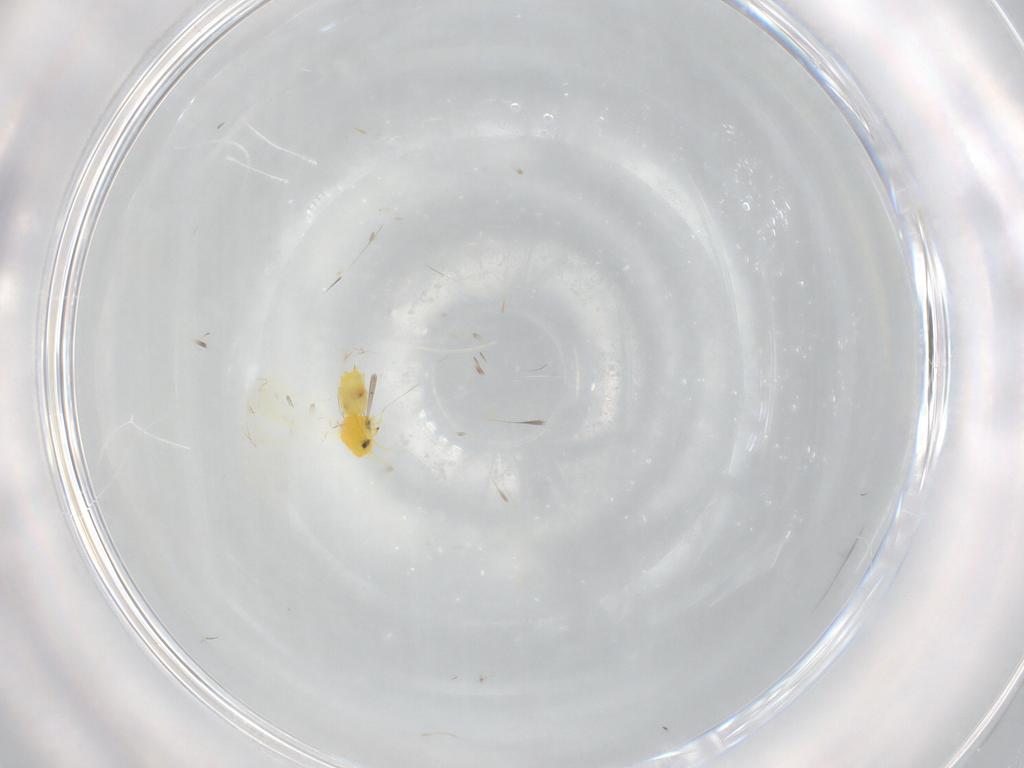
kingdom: Animalia
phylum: Arthropoda
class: Insecta
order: Hemiptera
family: Aleyrodidae
